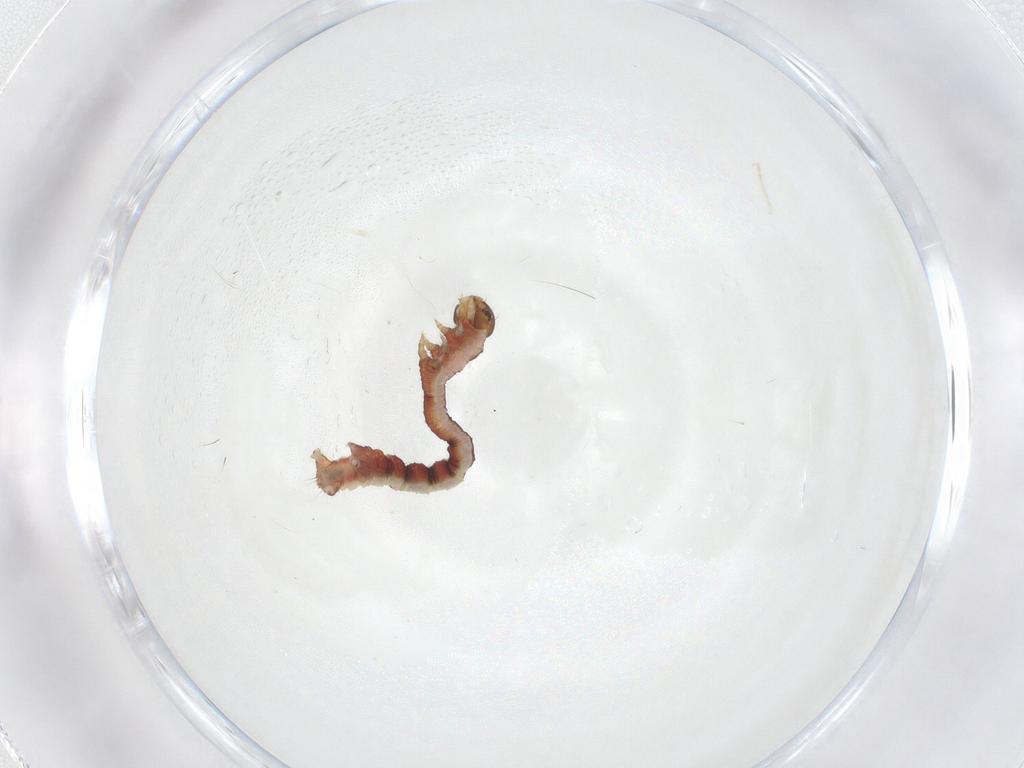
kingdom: Animalia
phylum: Arthropoda
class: Insecta
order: Lepidoptera
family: Geometridae
